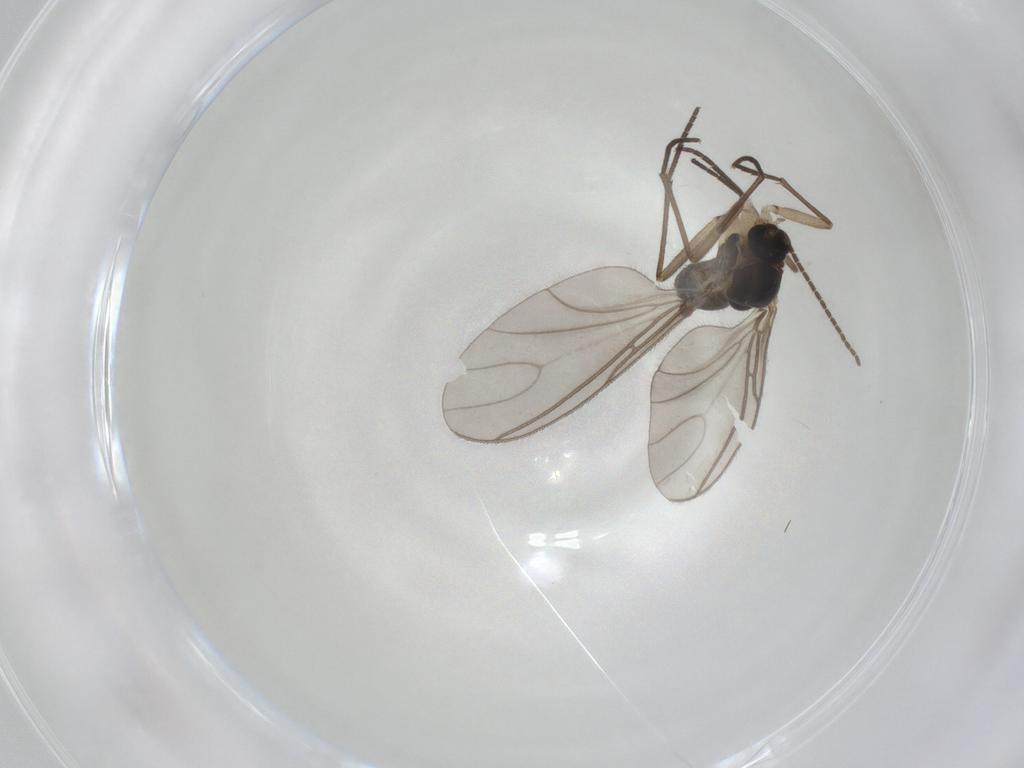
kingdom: Animalia
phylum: Arthropoda
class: Insecta
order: Diptera
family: Sciaridae
